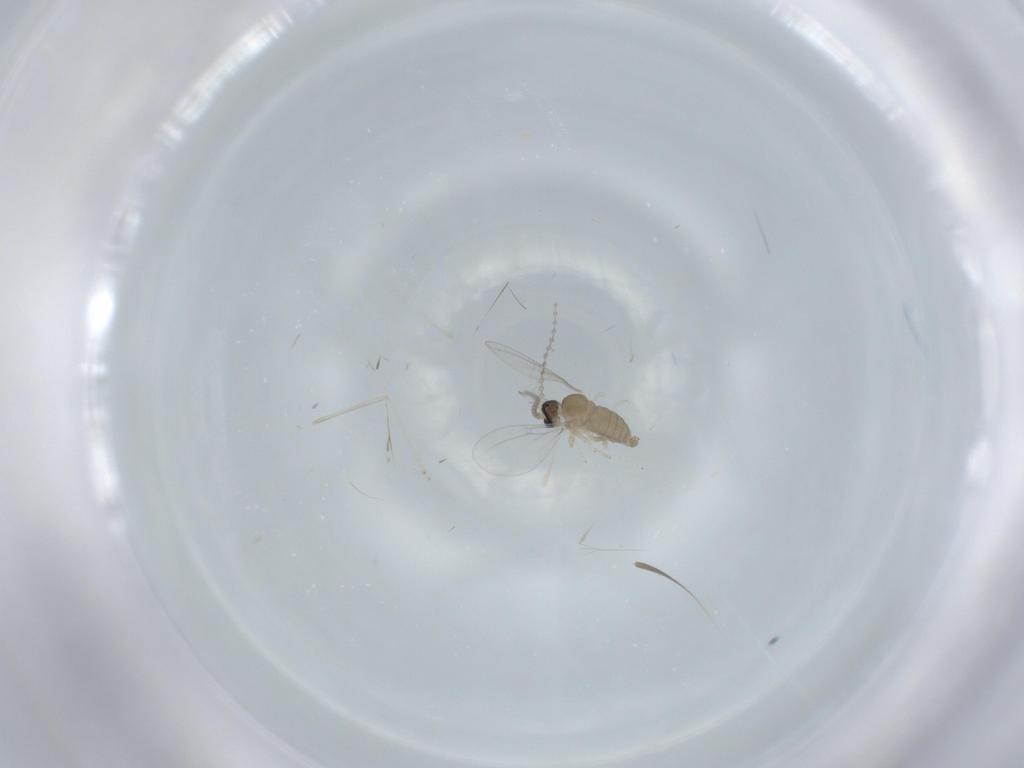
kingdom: Animalia
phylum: Arthropoda
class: Insecta
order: Diptera
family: Cecidomyiidae
